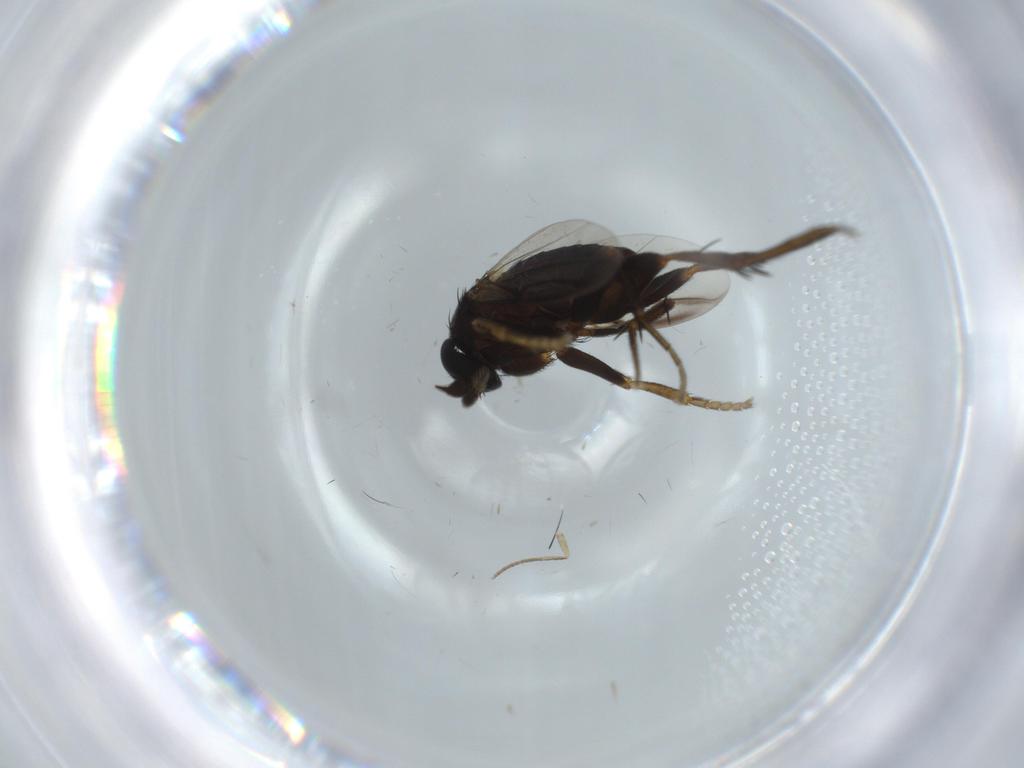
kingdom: Animalia
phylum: Arthropoda
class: Insecta
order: Diptera
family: Phoridae
